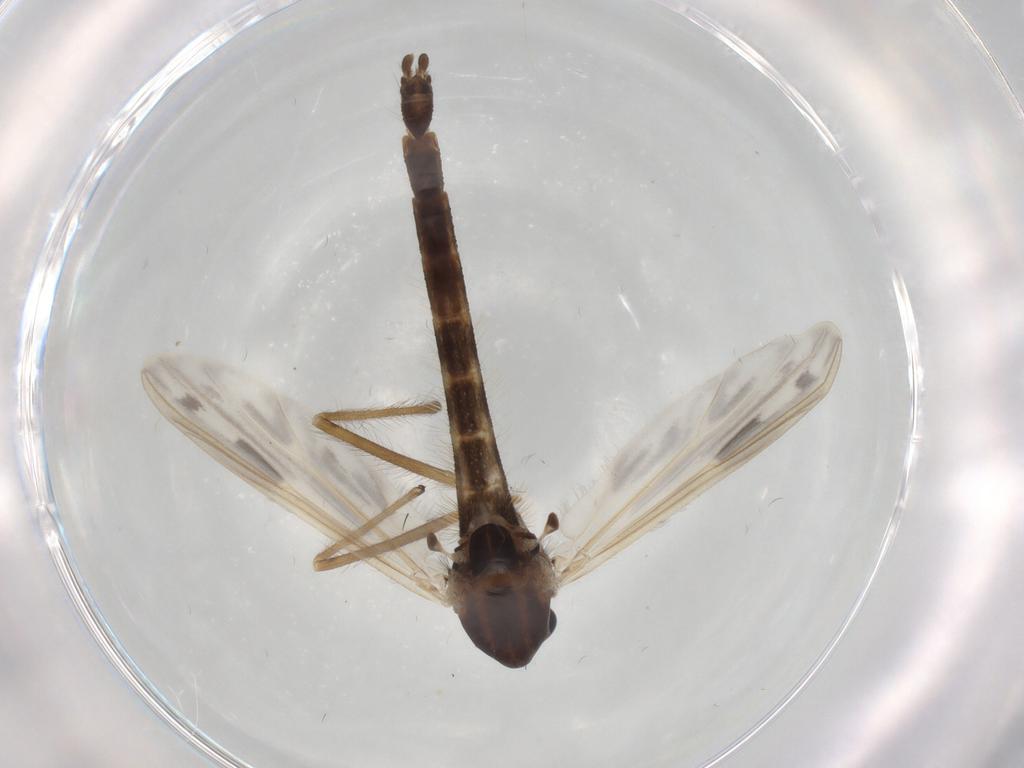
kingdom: Animalia
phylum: Arthropoda
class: Insecta
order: Diptera
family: Chironomidae
